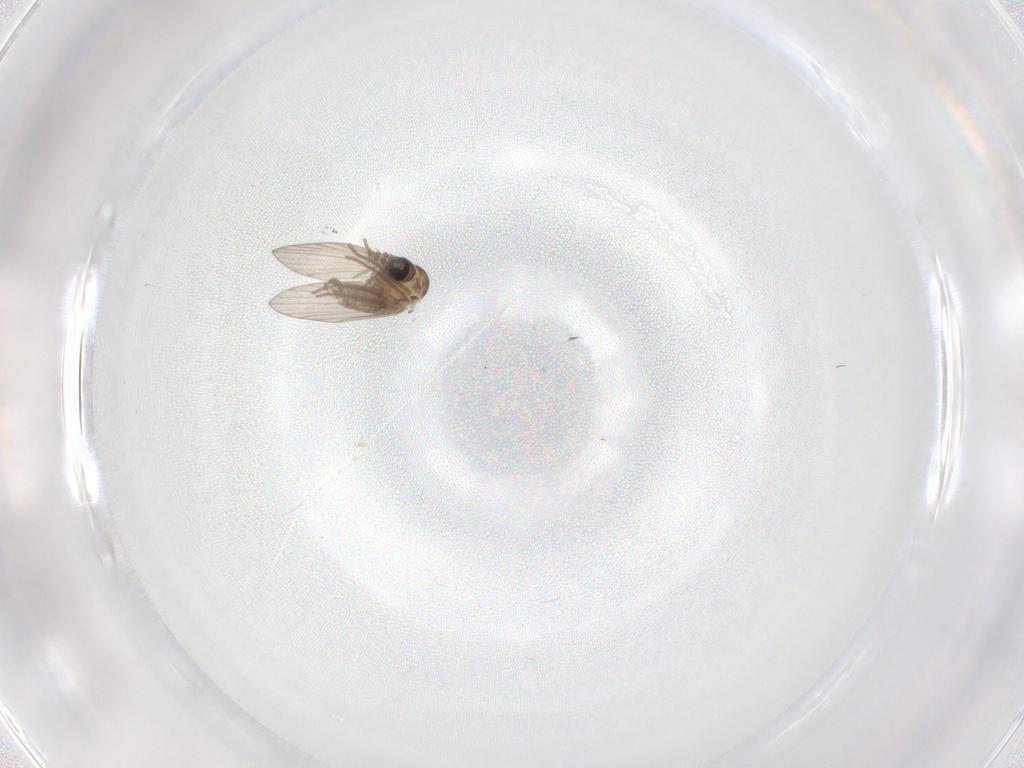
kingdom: Animalia
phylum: Arthropoda
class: Insecta
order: Diptera
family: Psychodidae
